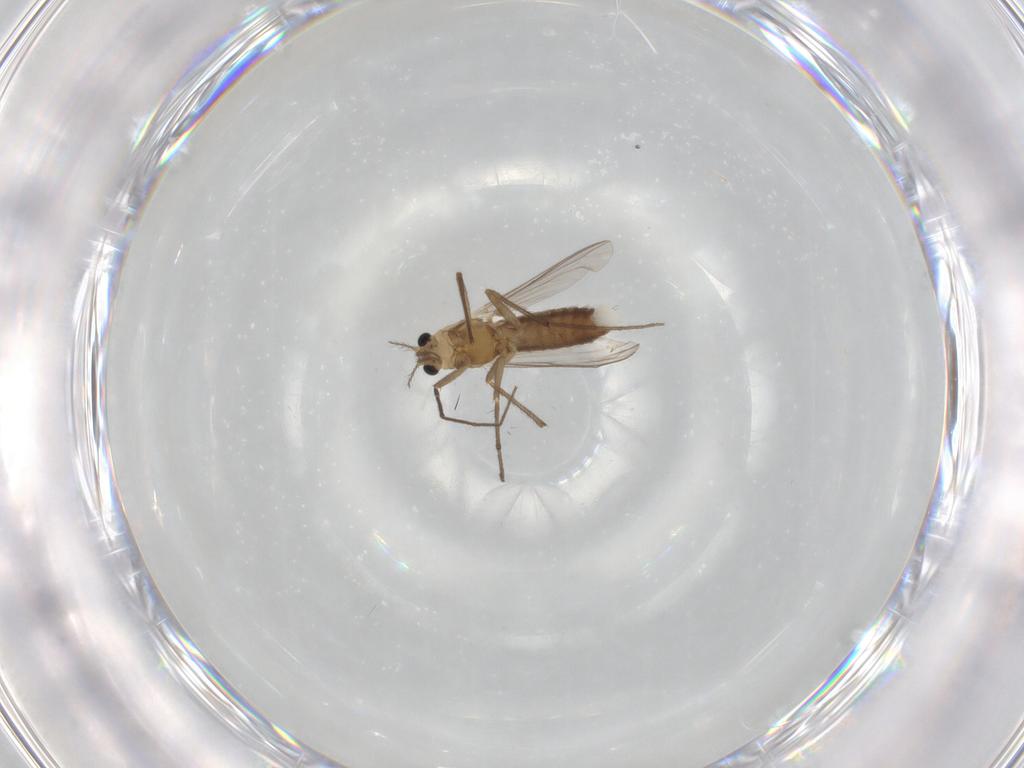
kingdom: Animalia
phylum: Arthropoda
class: Insecta
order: Diptera
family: Chironomidae
